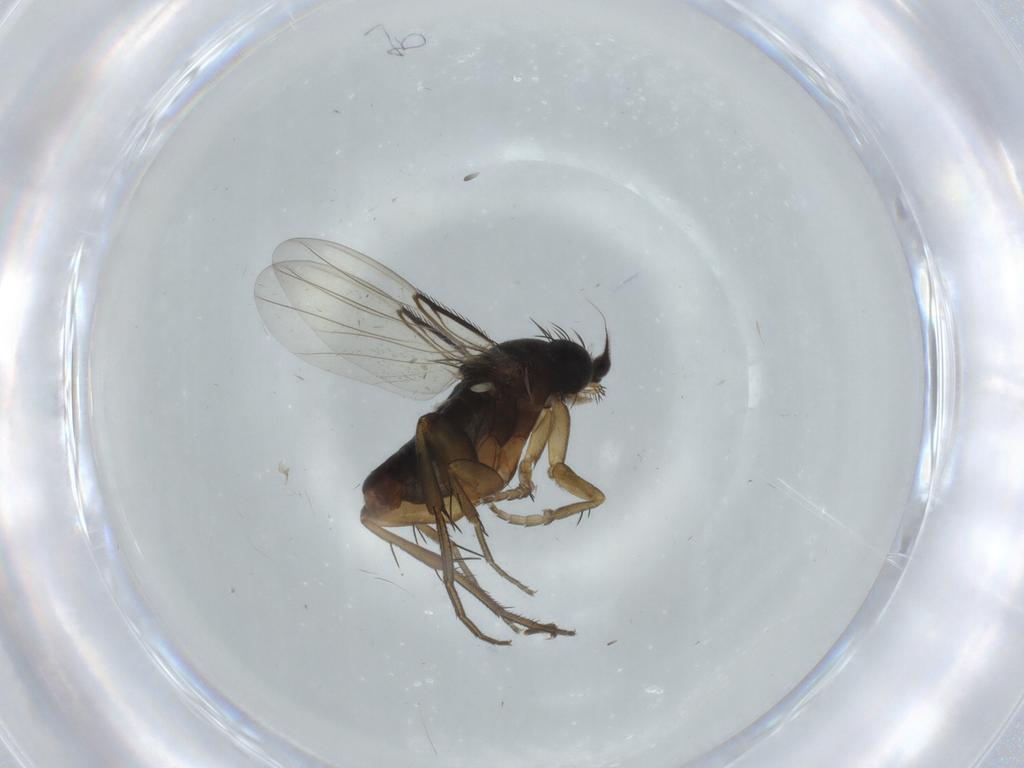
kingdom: Animalia
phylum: Arthropoda
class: Insecta
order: Diptera
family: Phoridae
